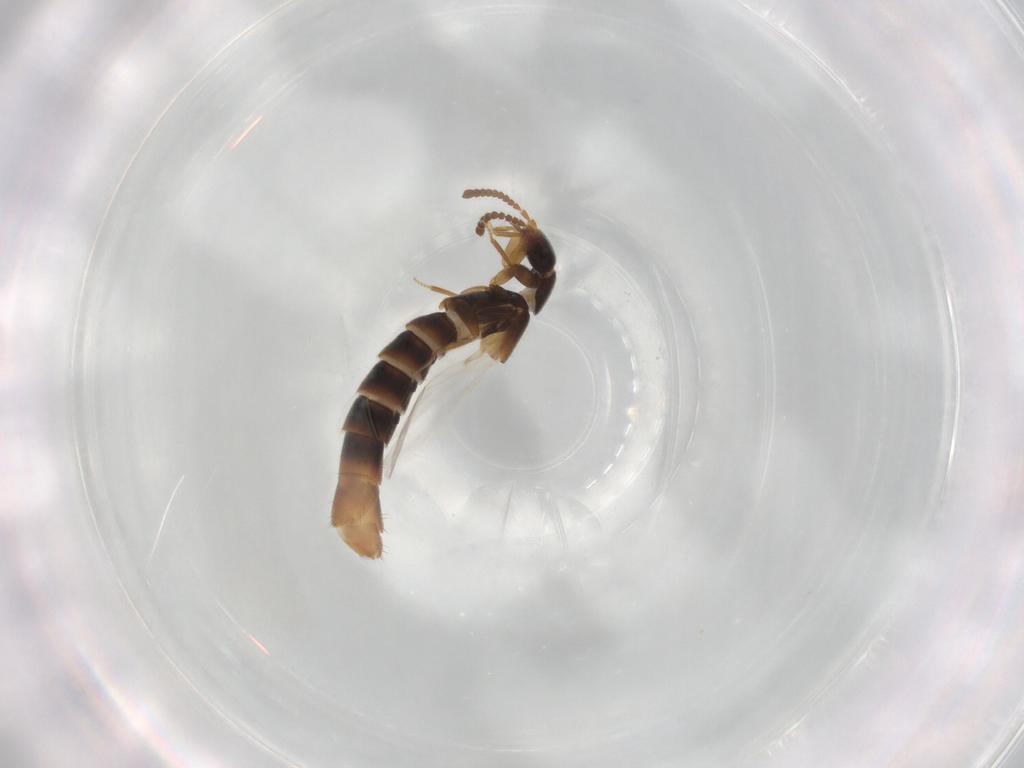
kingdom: Animalia
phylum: Arthropoda
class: Insecta
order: Coleoptera
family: Staphylinidae
